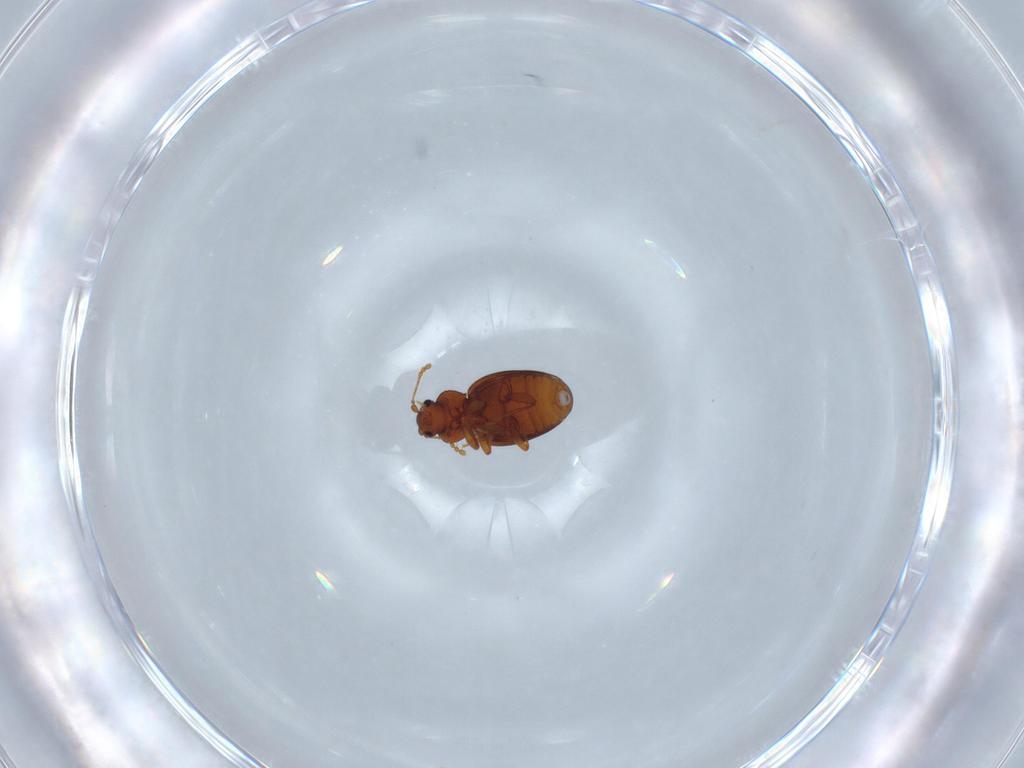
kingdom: Animalia
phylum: Arthropoda
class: Insecta
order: Coleoptera
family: Latridiidae
